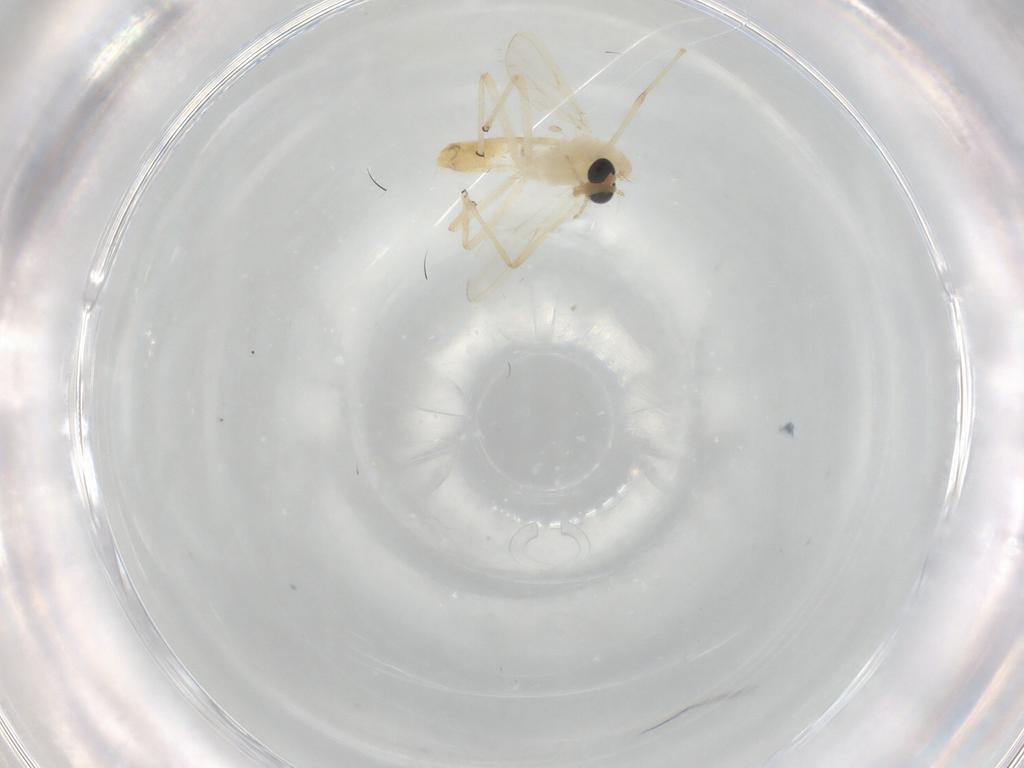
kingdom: Animalia
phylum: Arthropoda
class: Insecta
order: Diptera
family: Chironomidae
